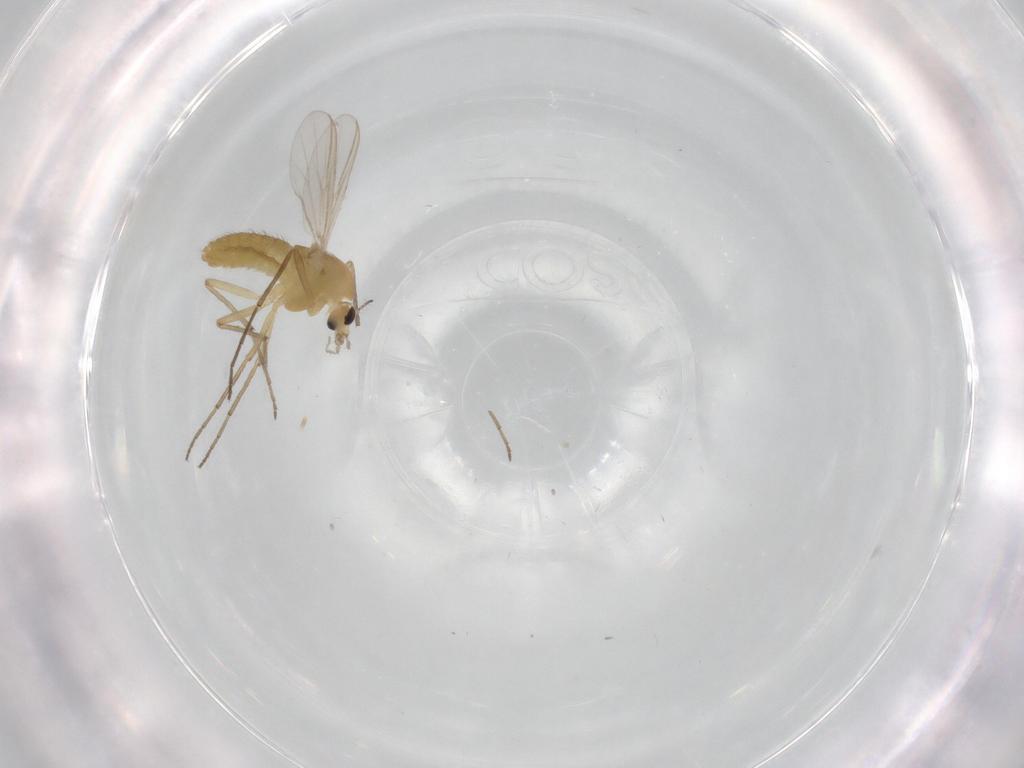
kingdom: Animalia
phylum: Arthropoda
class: Insecta
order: Diptera
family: Chironomidae
